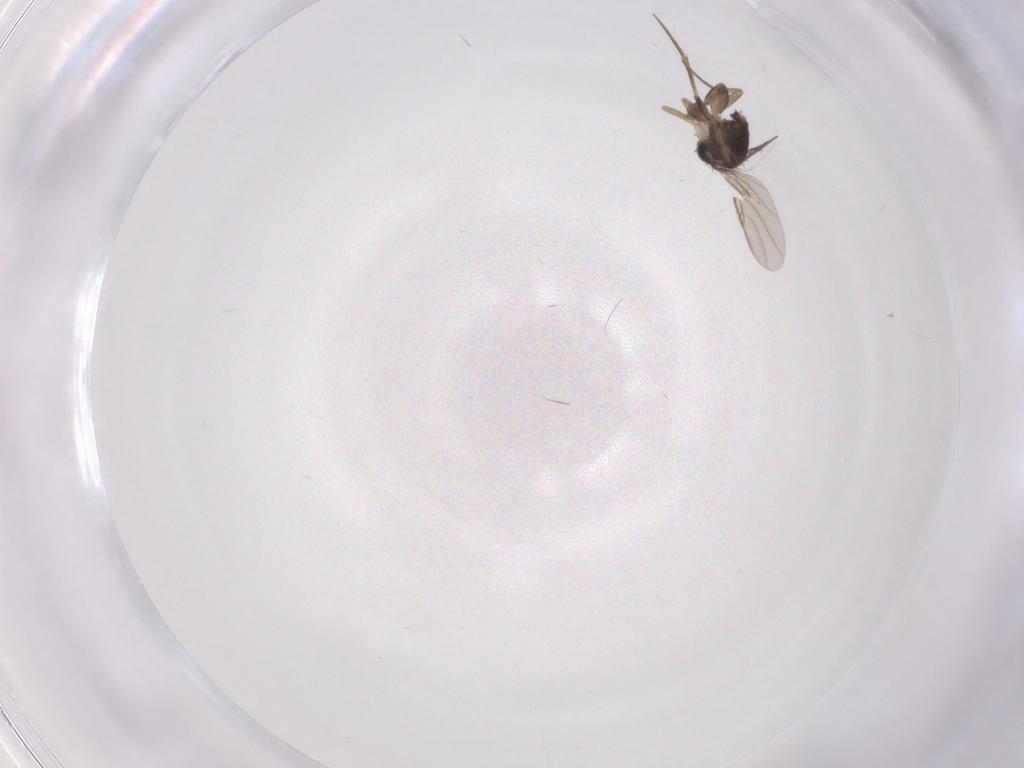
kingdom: Animalia
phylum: Arthropoda
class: Insecta
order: Diptera
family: Phoridae
